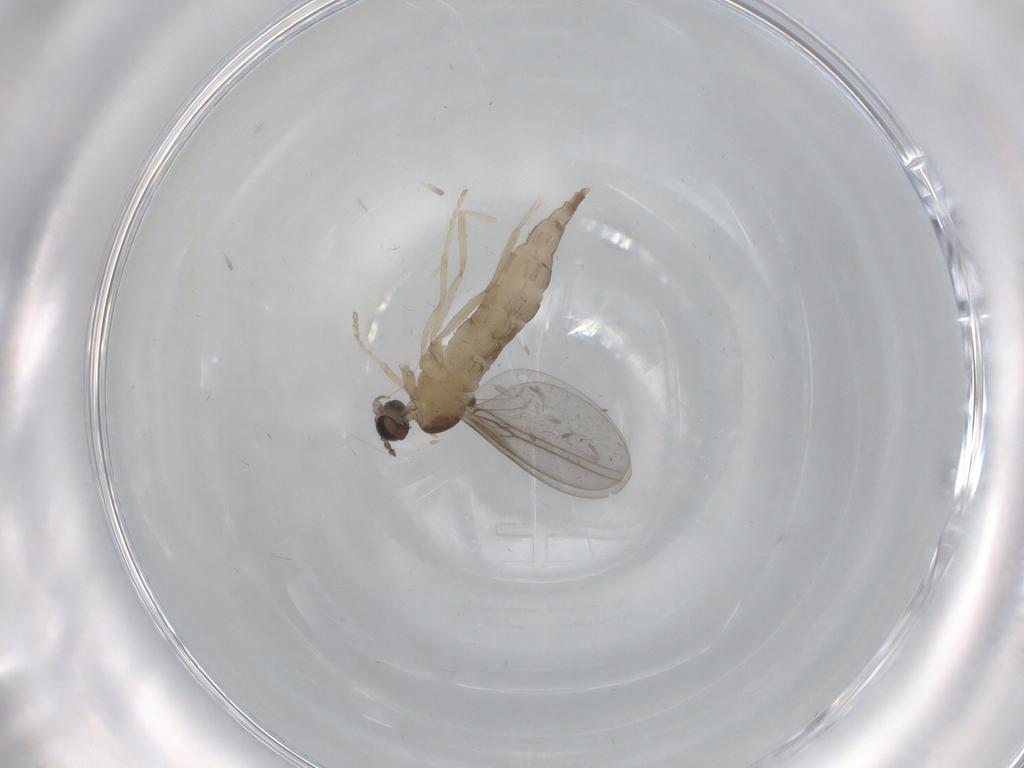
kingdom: Animalia
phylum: Arthropoda
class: Insecta
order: Diptera
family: Cecidomyiidae
